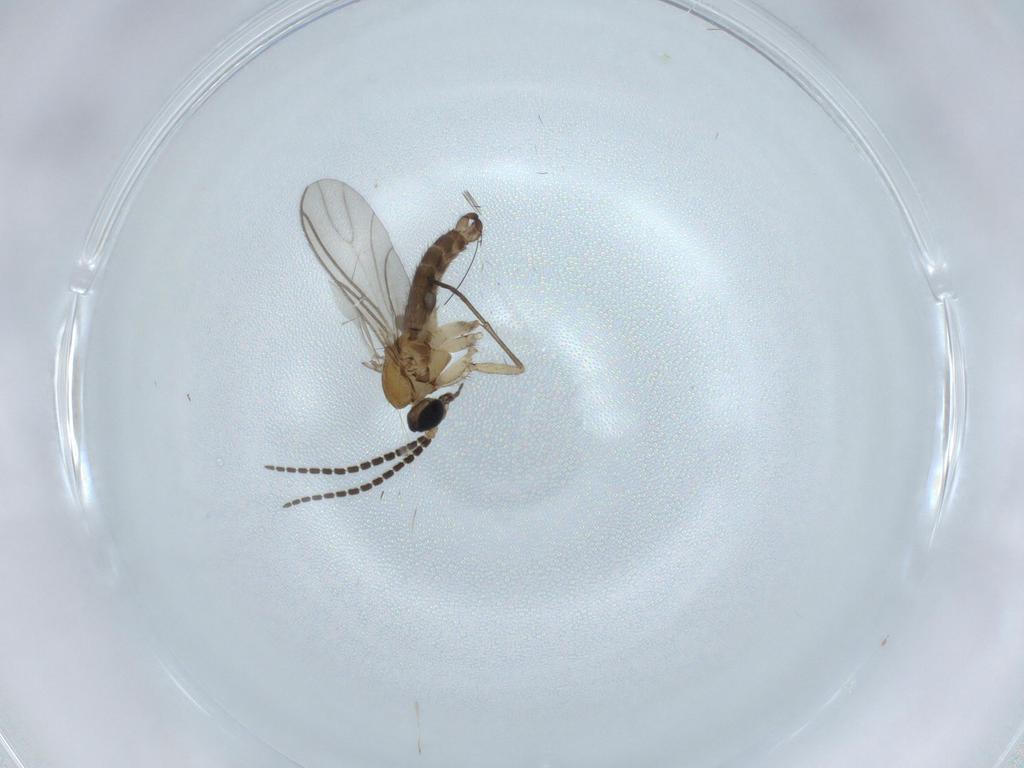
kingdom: Animalia
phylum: Arthropoda
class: Insecta
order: Diptera
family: Sciaridae
